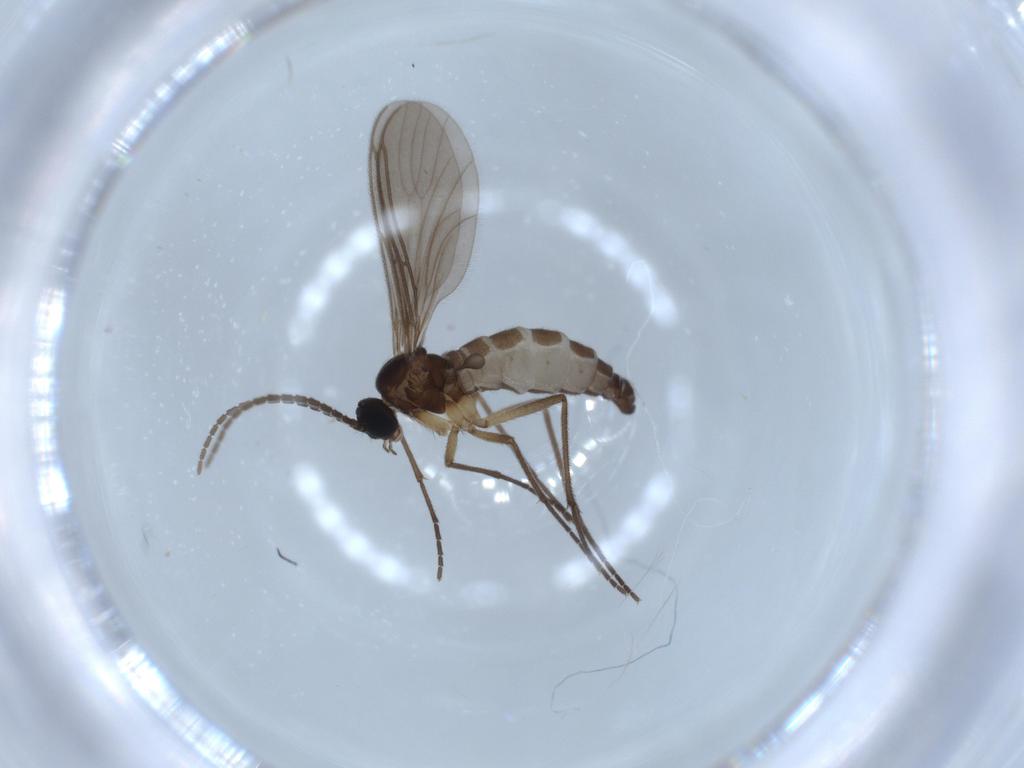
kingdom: Animalia
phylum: Arthropoda
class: Insecta
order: Diptera
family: Sciaridae
